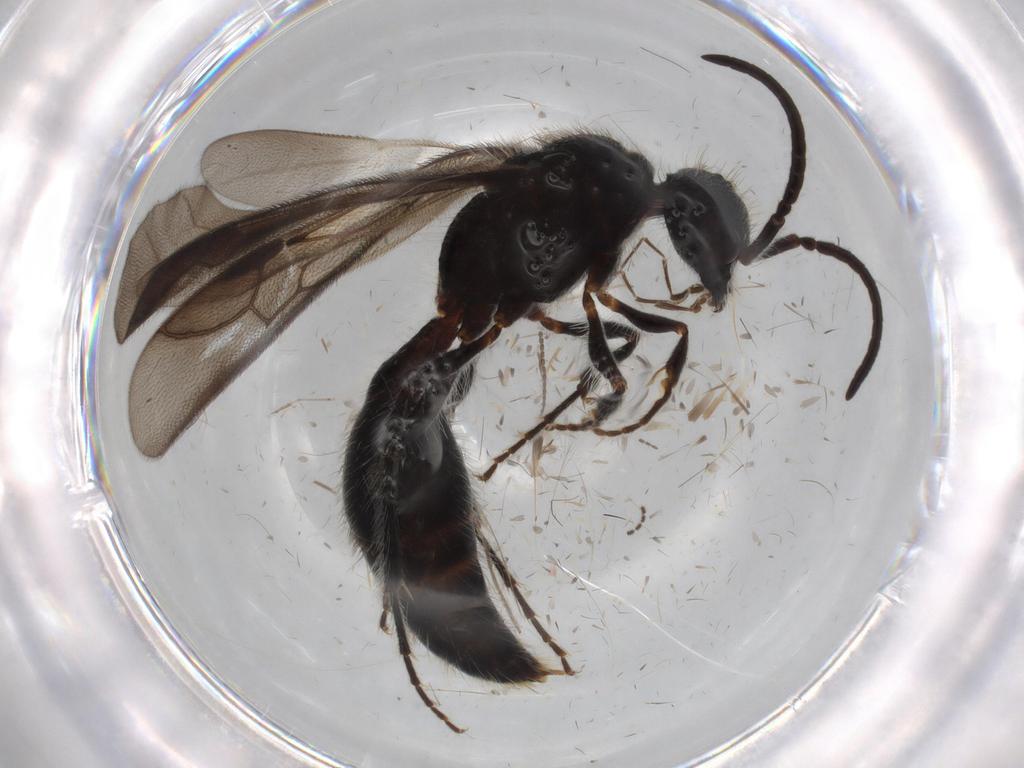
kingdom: Animalia
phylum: Arthropoda
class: Insecta
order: Hymenoptera
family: Mutillidae
